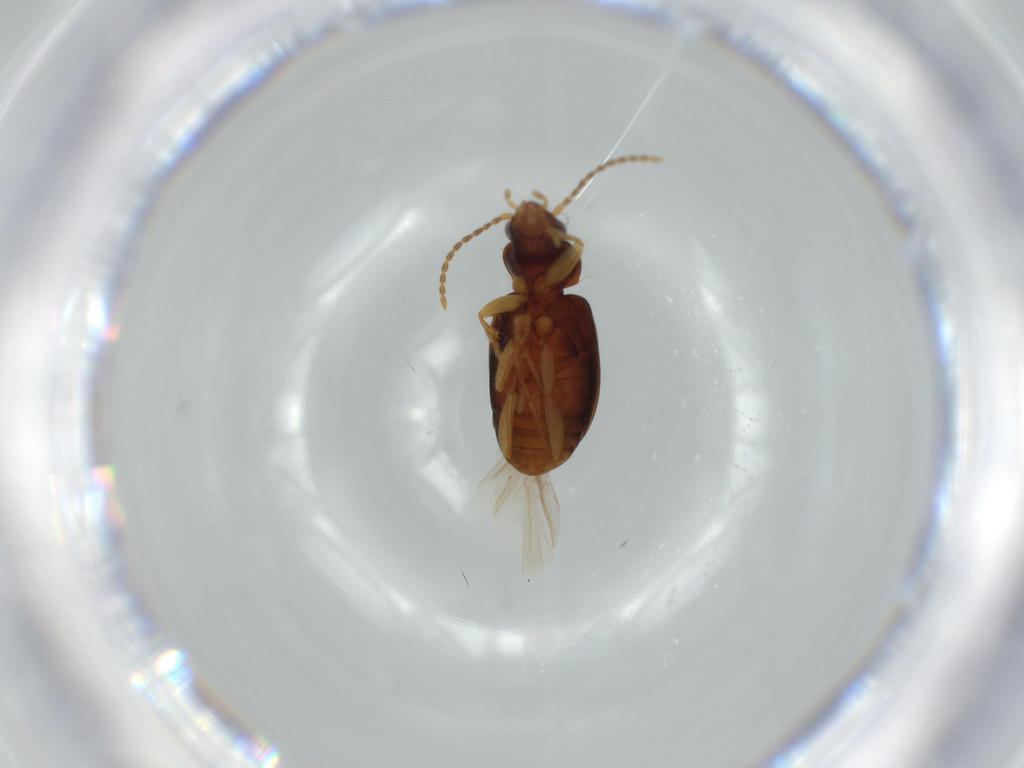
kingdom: Animalia
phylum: Arthropoda
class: Insecta
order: Coleoptera
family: Carabidae
